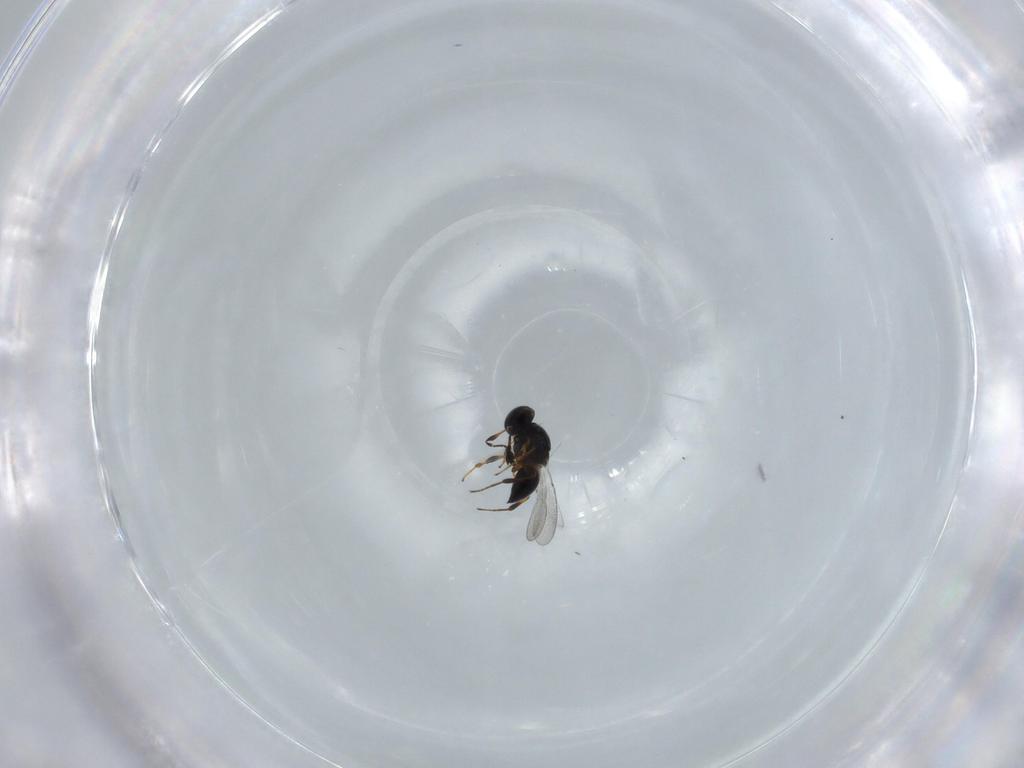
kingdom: Animalia
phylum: Arthropoda
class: Insecta
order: Hymenoptera
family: Platygastridae
